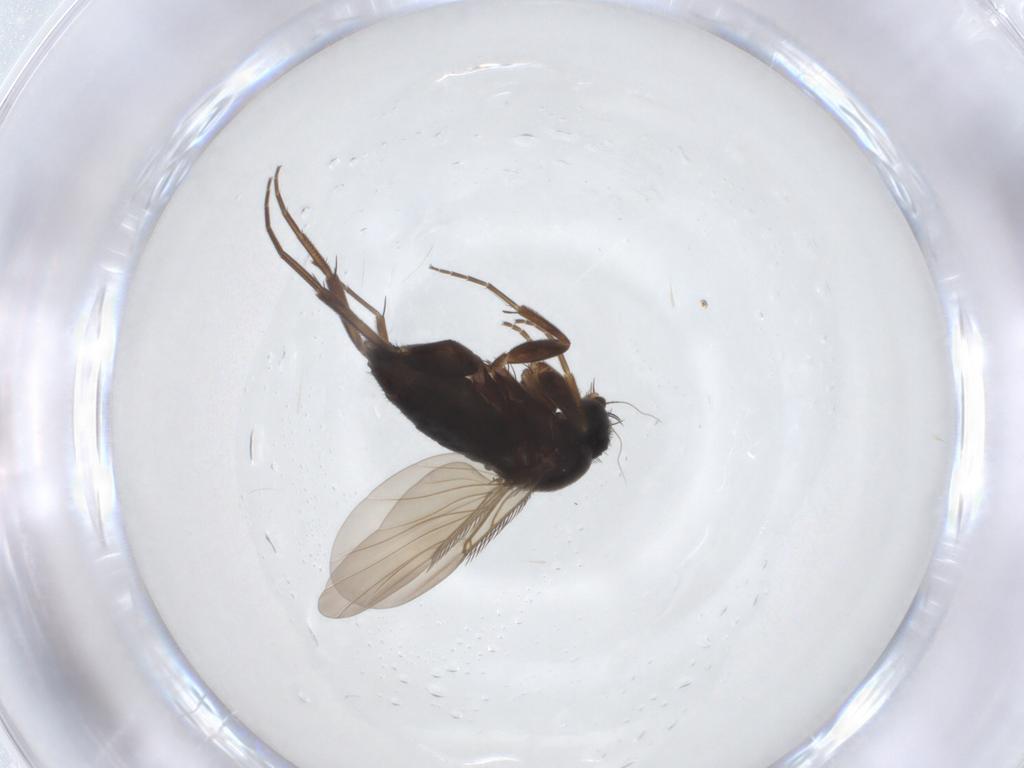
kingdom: Animalia
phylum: Arthropoda
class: Insecta
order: Diptera
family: Phoridae
